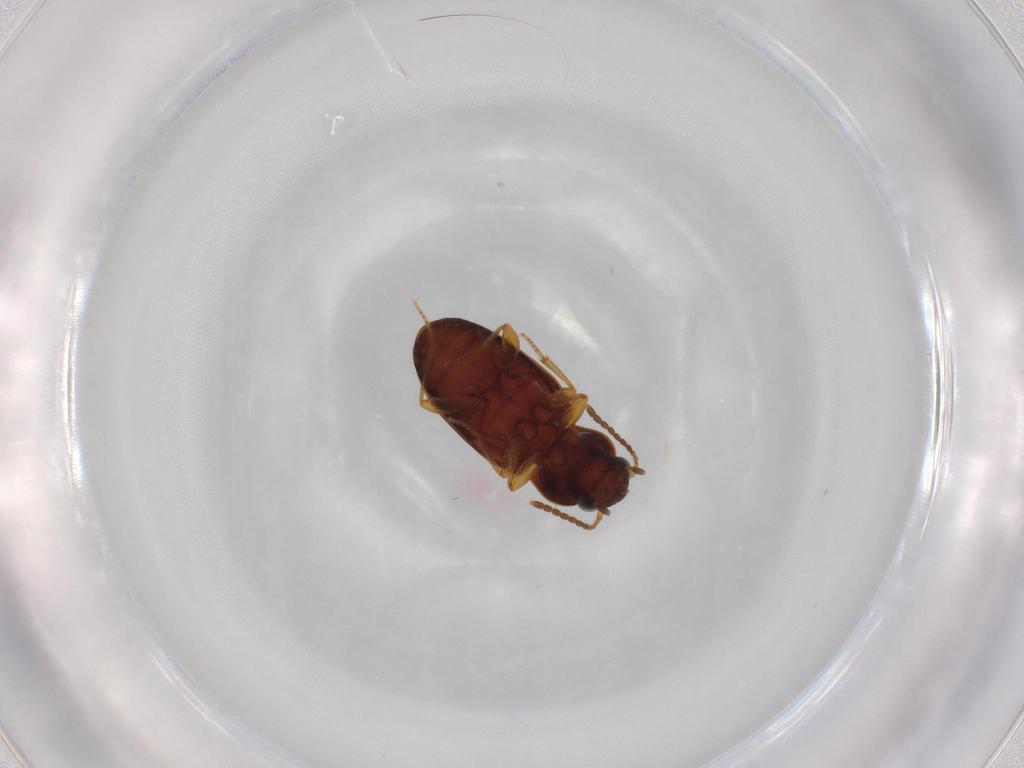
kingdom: Animalia
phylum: Arthropoda
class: Insecta
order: Coleoptera
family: Carabidae
